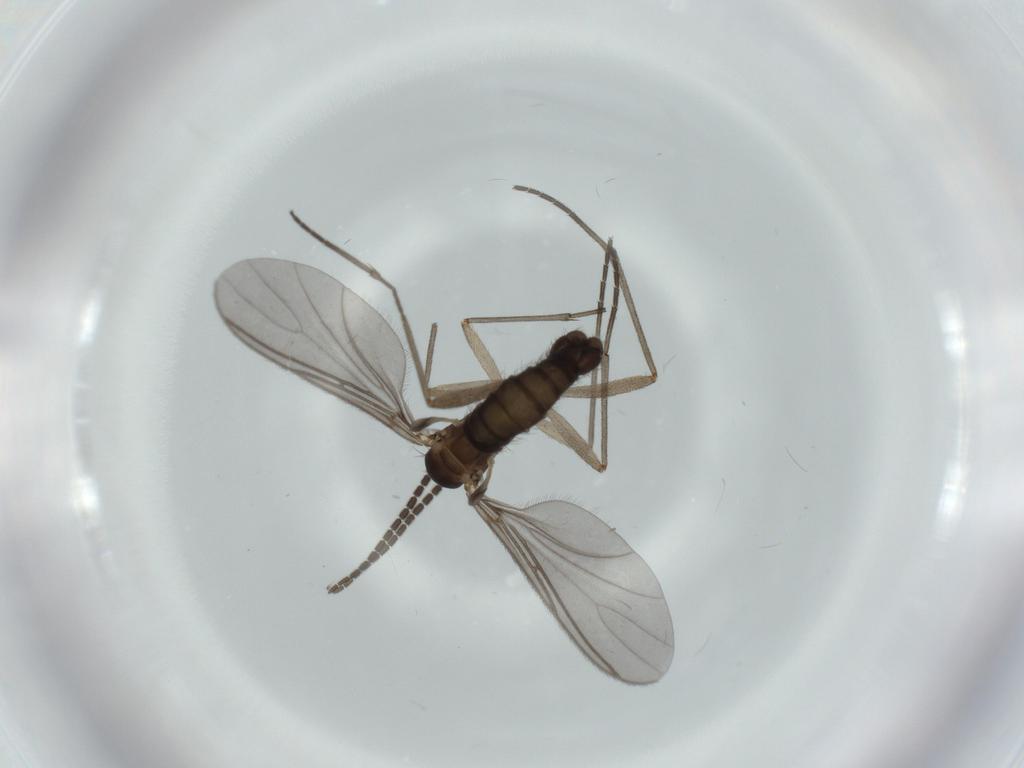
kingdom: Animalia
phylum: Arthropoda
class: Insecta
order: Diptera
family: Sciaridae
